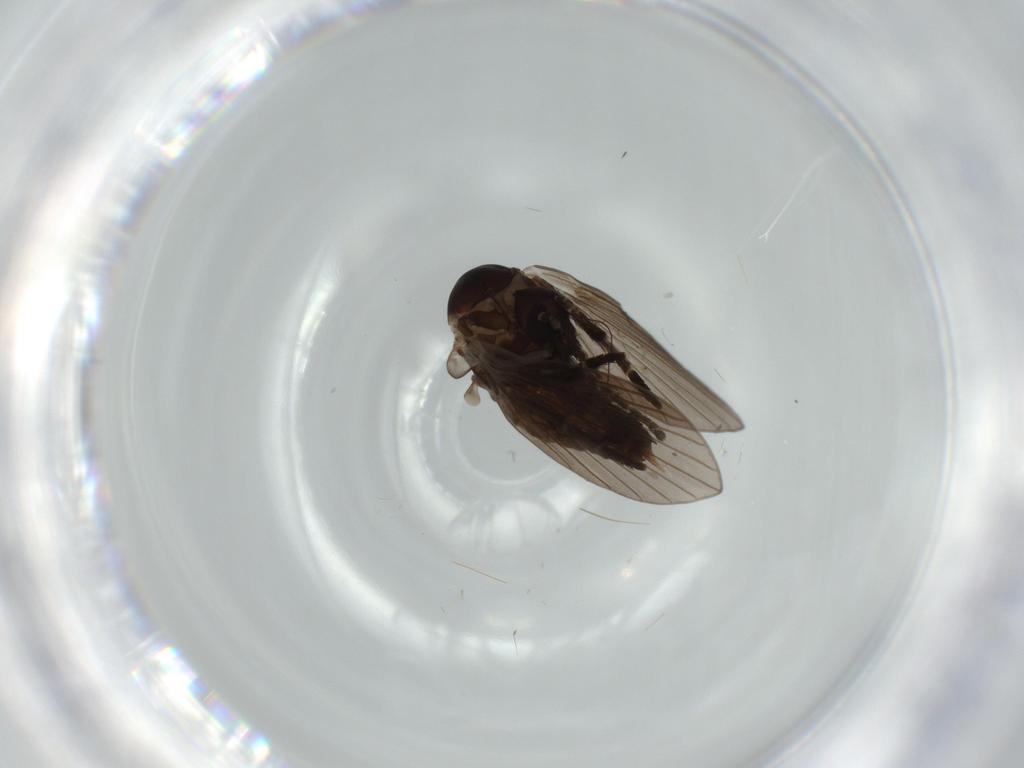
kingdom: Animalia
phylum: Arthropoda
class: Insecta
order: Diptera
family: Psychodidae
